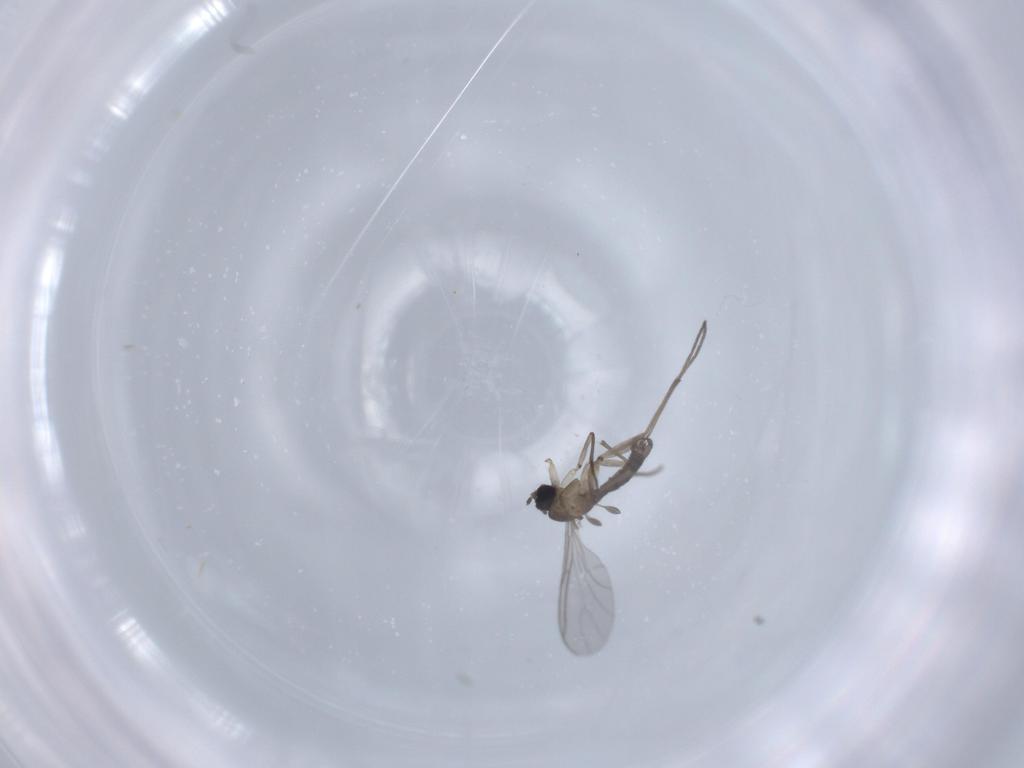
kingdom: Animalia
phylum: Arthropoda
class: Insecta
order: Diptera
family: Sciaridae
